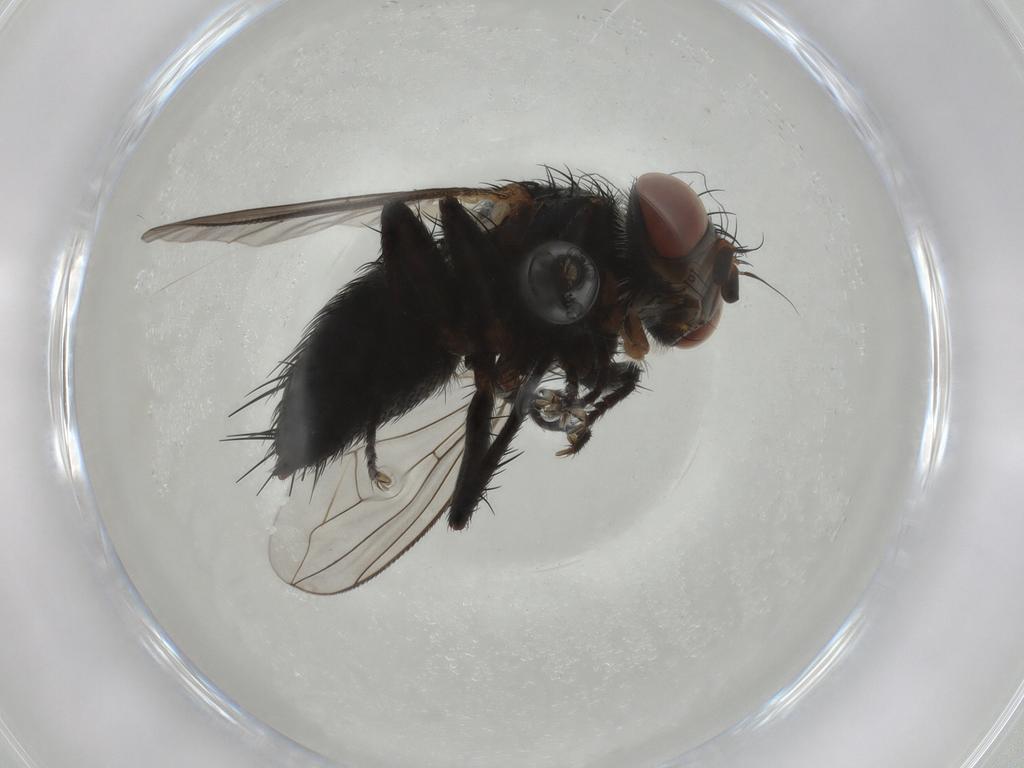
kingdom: Animalia
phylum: Arthropoda
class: Insecta
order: Diptera
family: Tachinidae
